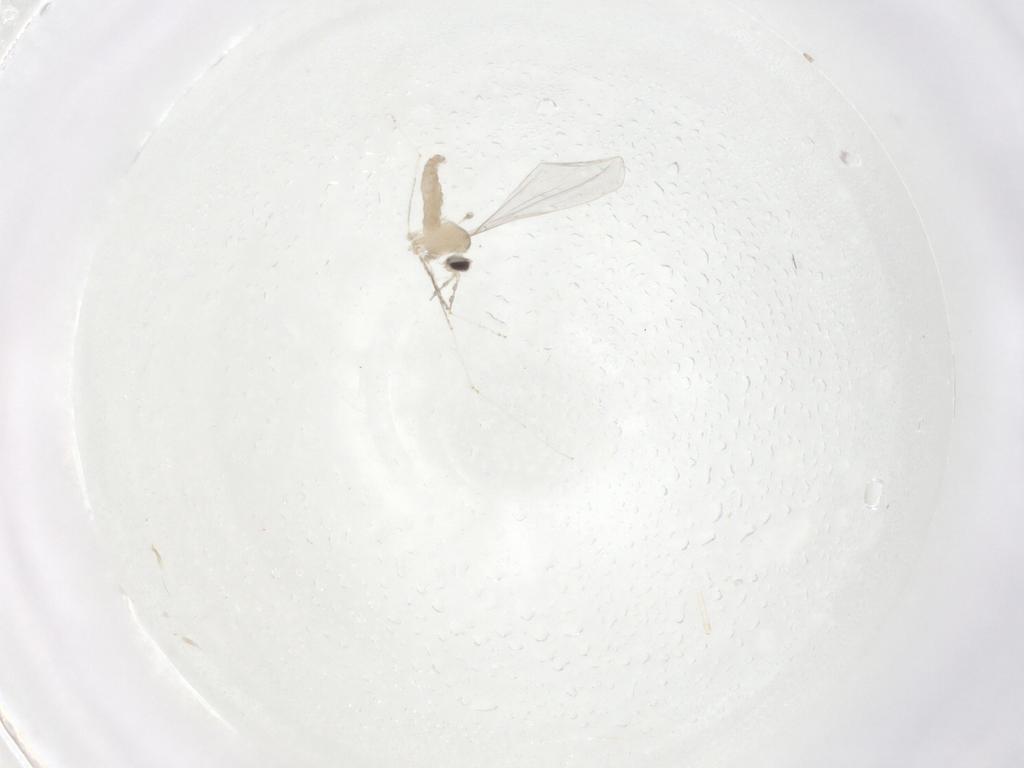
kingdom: Animalia
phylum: Arthropoda
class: Insecta
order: Diptera
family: Cecidomyiidae
